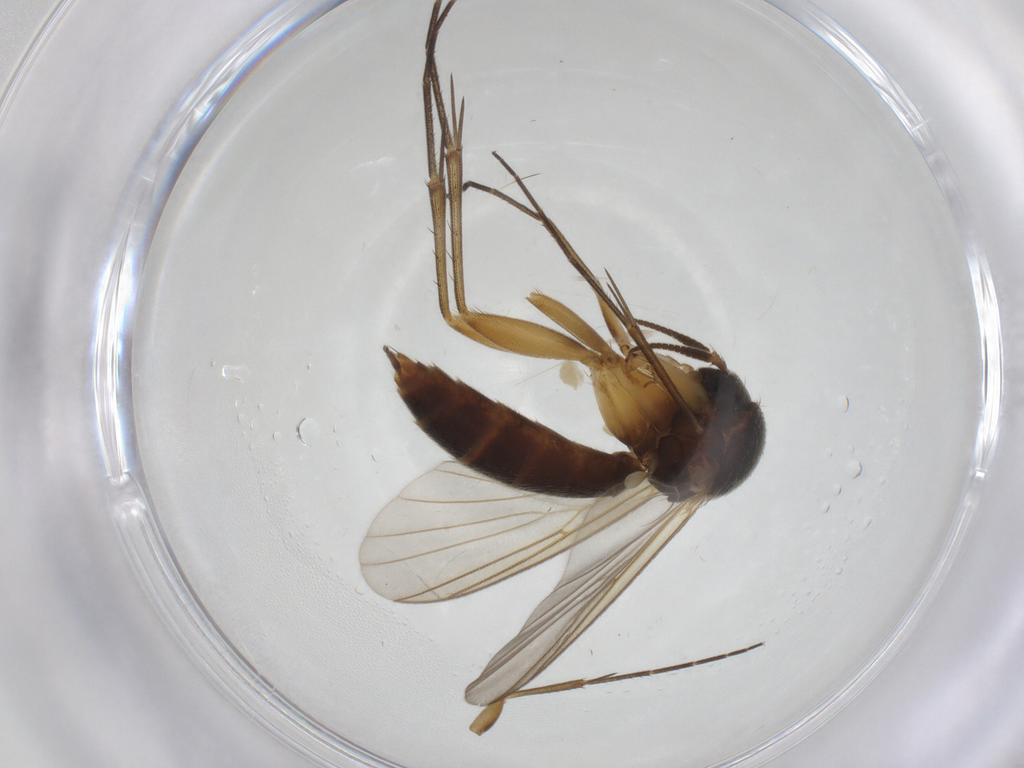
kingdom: Animalia
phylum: Arthropoda
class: Insecta
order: Diptera
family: Mycetophilidae
